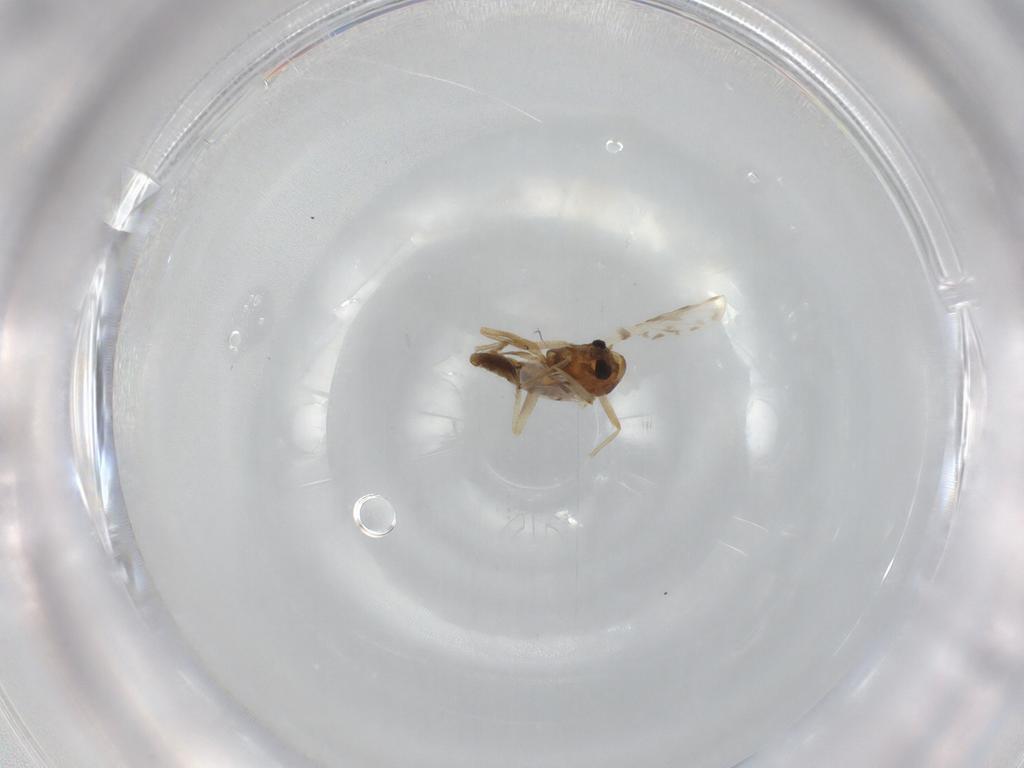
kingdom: Animalia
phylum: Arthropoda
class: Insecta
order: Diptera
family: Chironomidae
